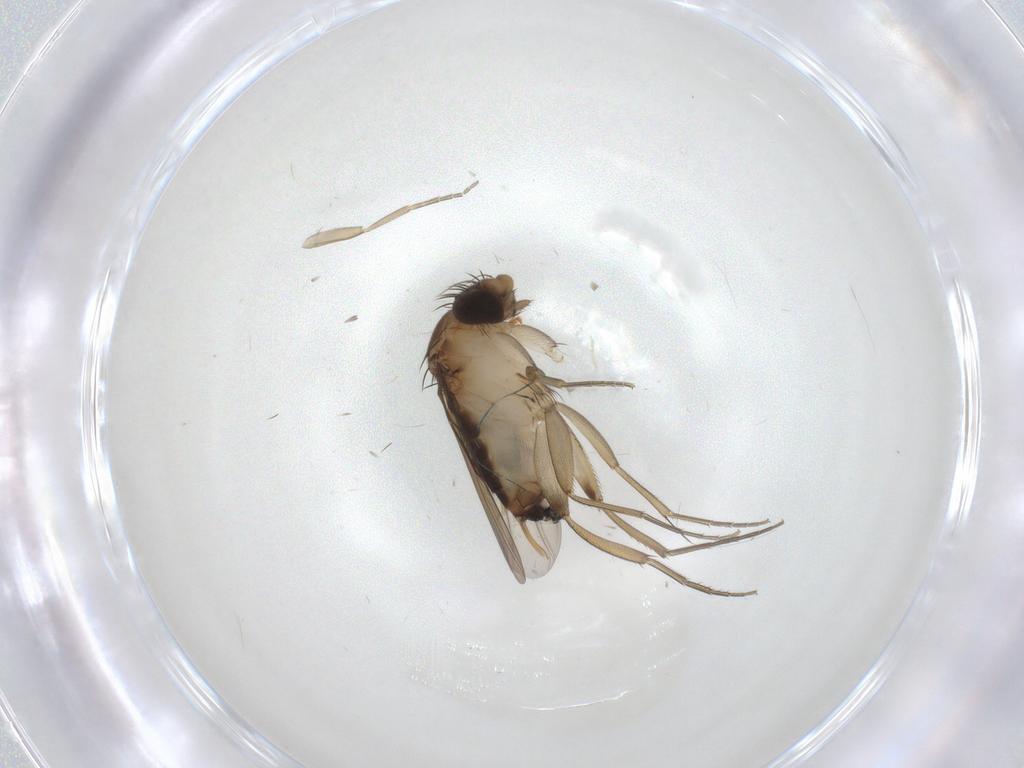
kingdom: Animalia
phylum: Arthropoda
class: Insecta
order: Diptera
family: Phoridae
